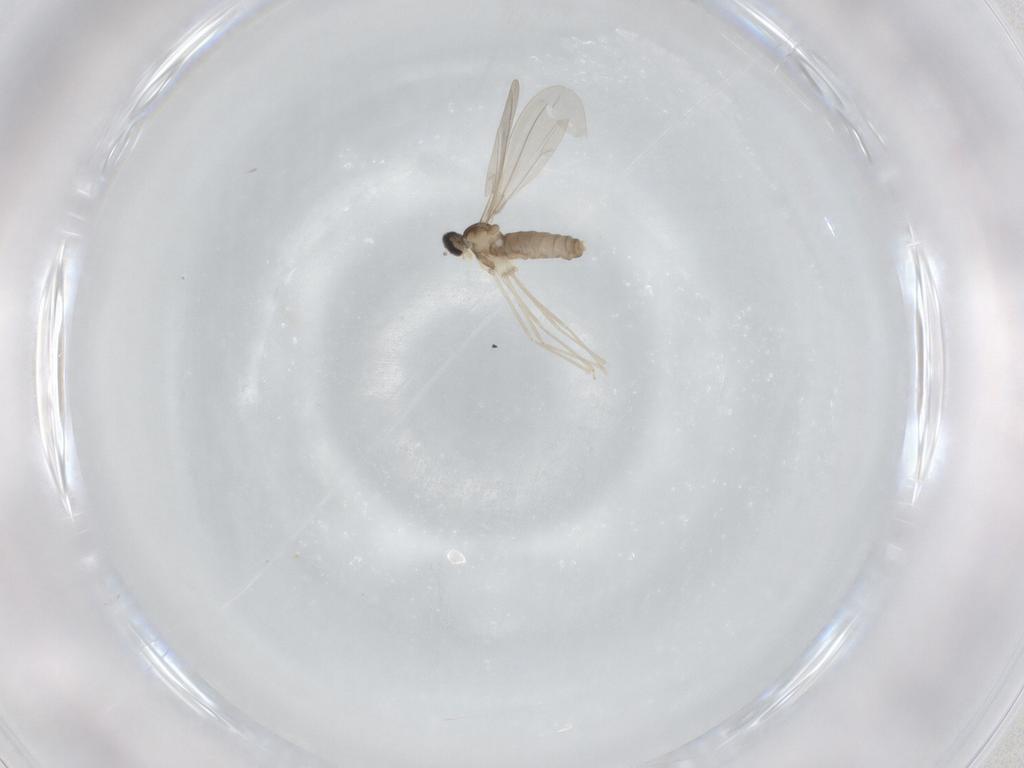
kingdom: Animalia
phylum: Arthropoda
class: Insecta
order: Diptera
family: Cecidomyiidae
